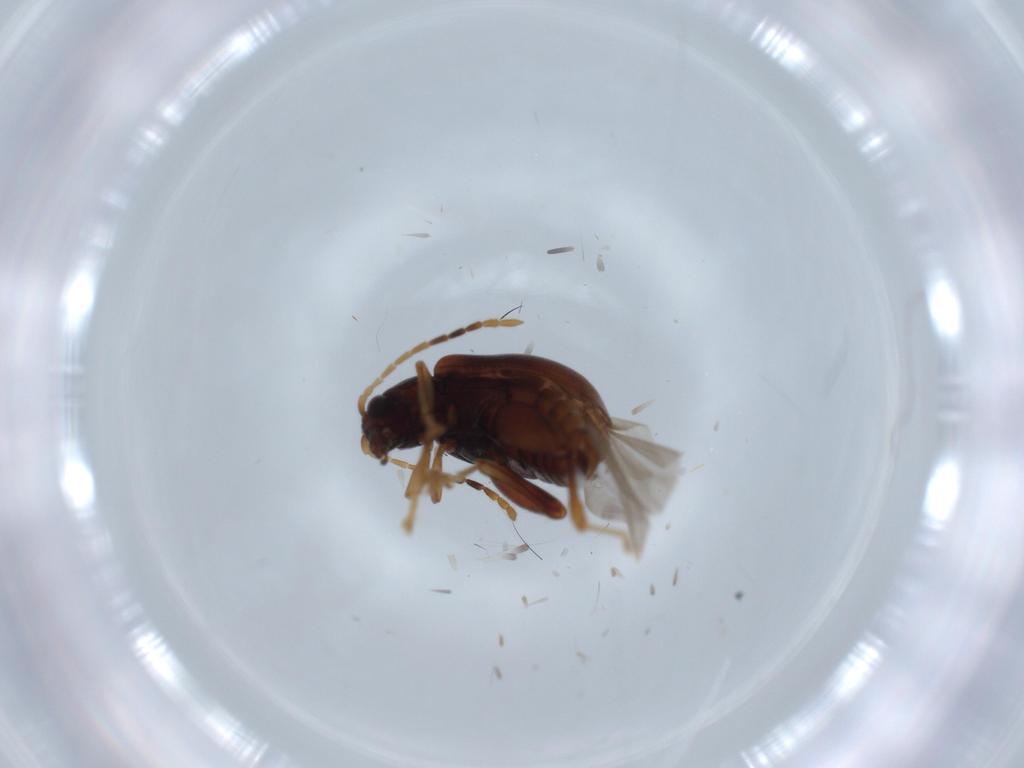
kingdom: Animalia
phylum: Arthropoda
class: Insecta
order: Coleoptera
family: Chrysomelidae
